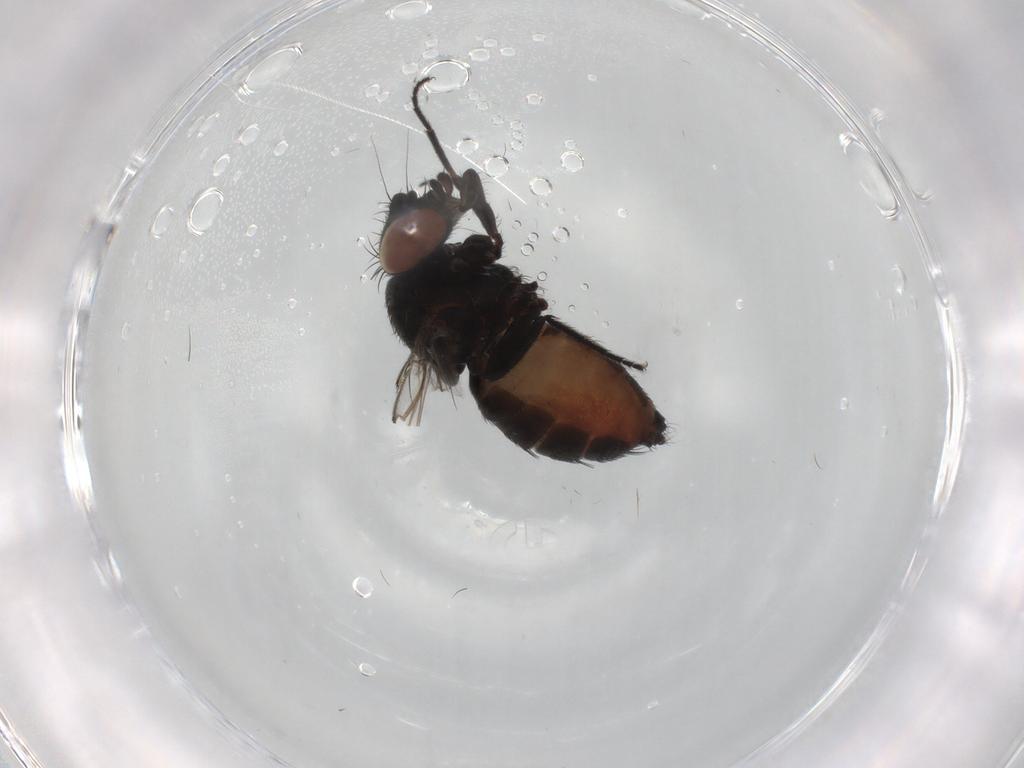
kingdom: Animalia
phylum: Arthropoda
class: Insecta
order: Diptera
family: Milichiidae
